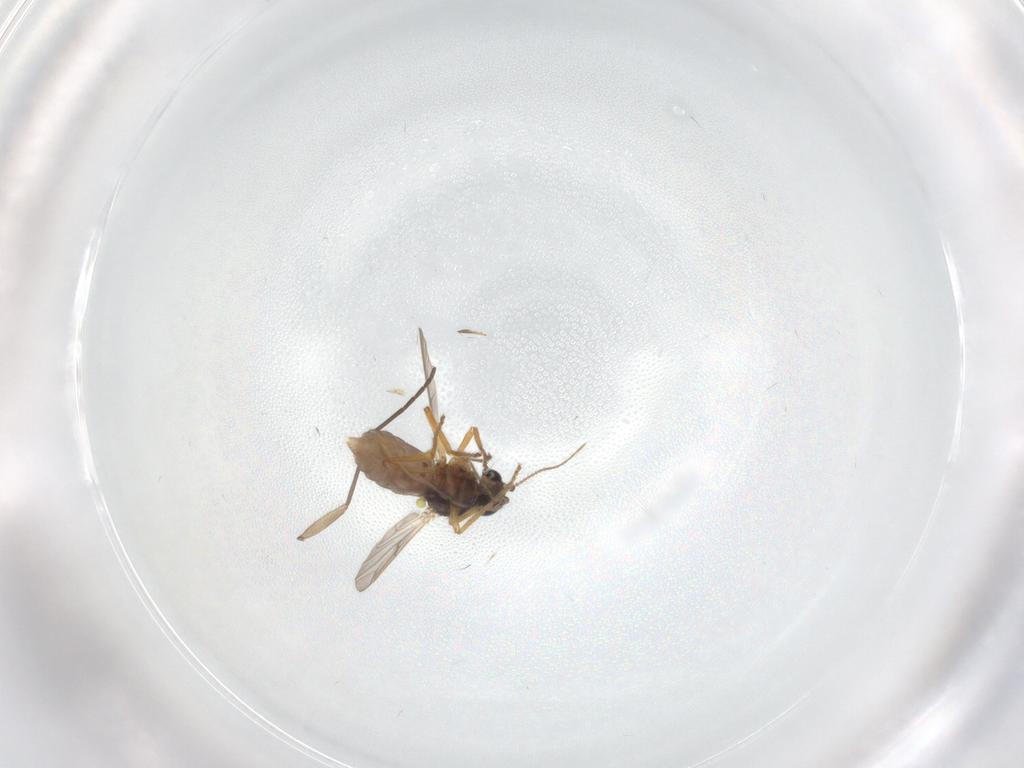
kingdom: Animalia
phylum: Arthropoda
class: Insecta
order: Diptera
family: Ceratopogonidae
